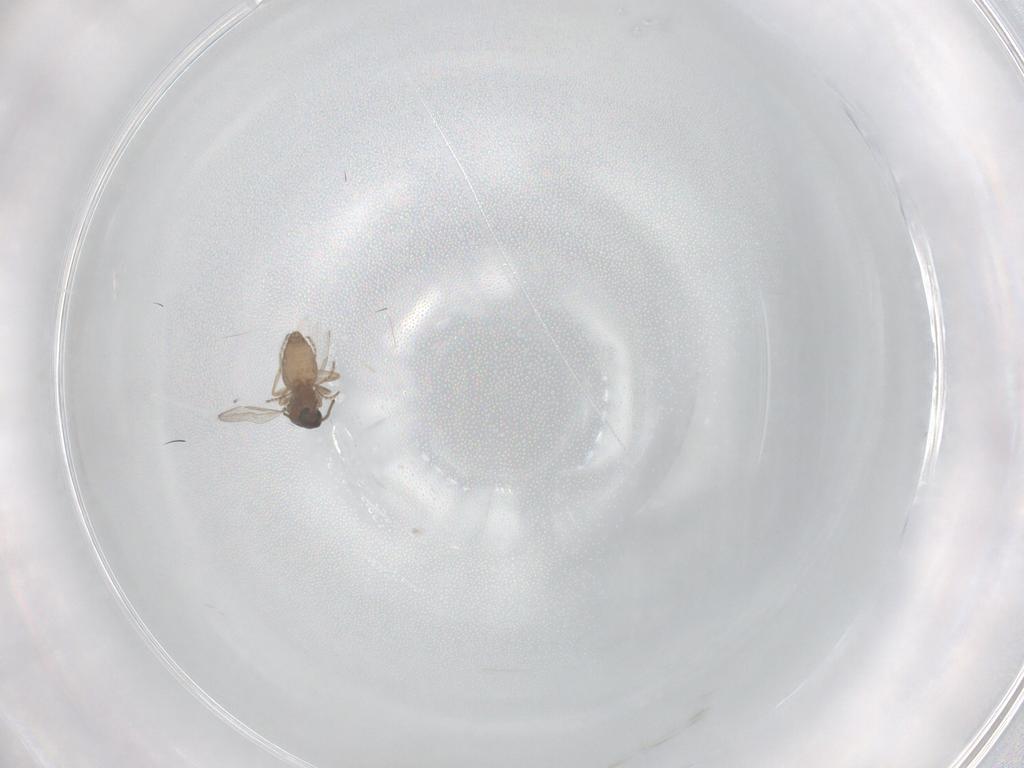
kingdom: Animalia
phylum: Arthropoda
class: Insecta
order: Diptera
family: Ceratopogonidae
